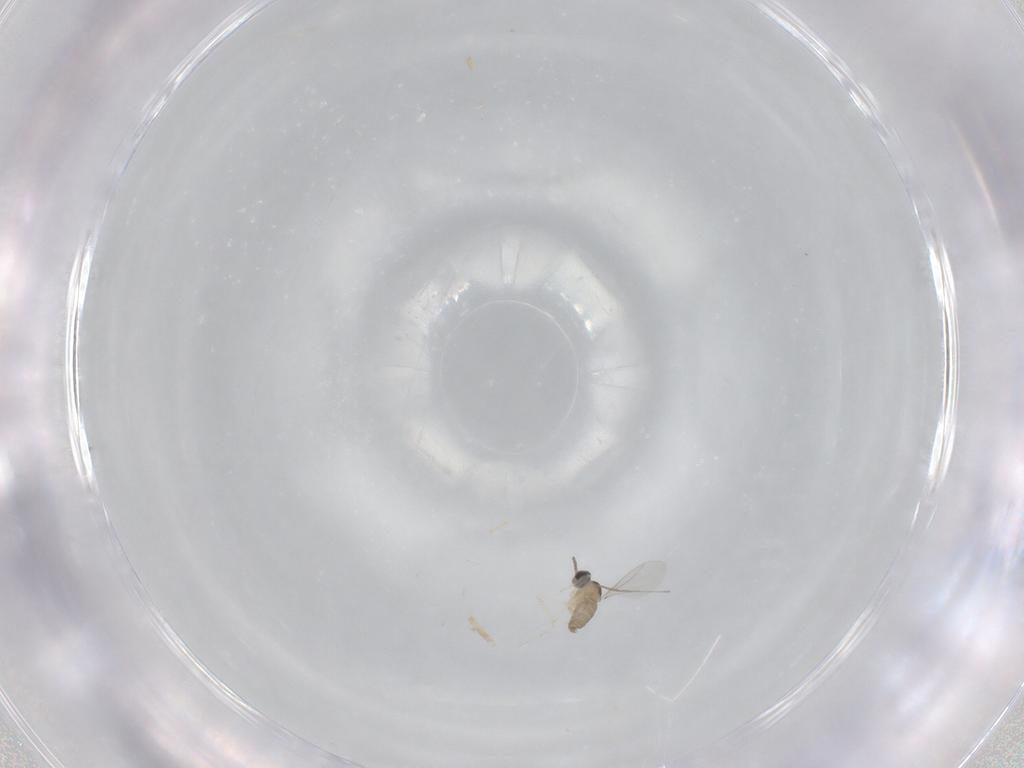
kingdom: Animalia
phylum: Arthropoda
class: Insecta
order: Diptera
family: Cecidomyiidae
